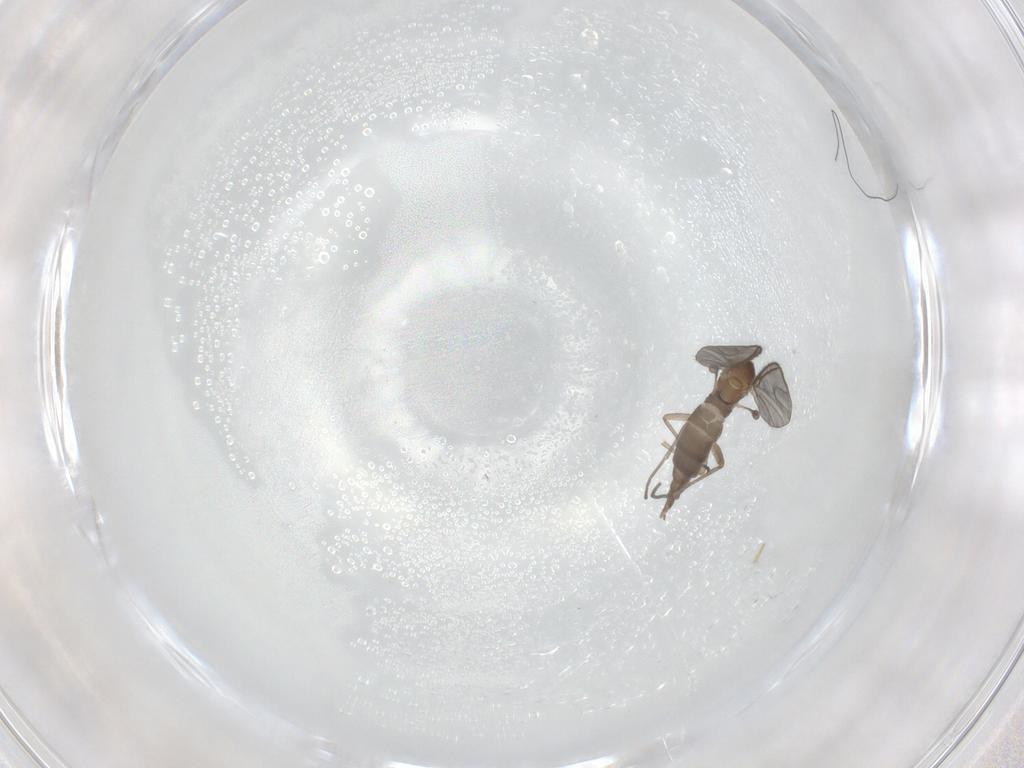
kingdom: Animalia
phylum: Arthropoda
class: Insecta
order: Diptera
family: Sciaridae
